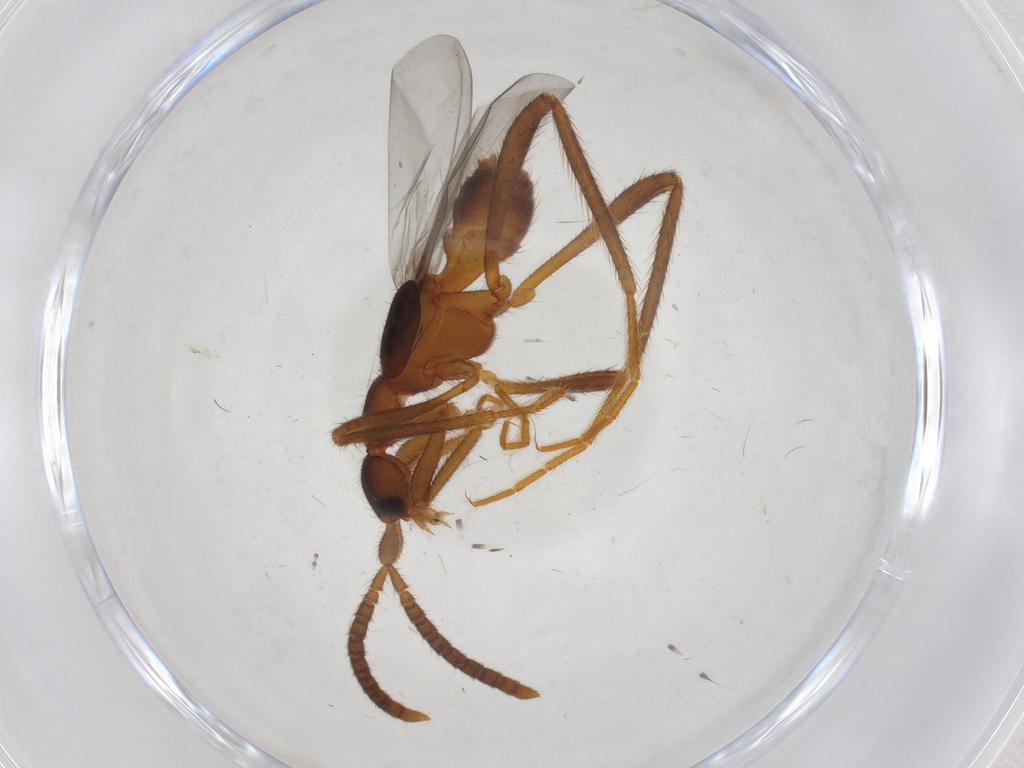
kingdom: Animalia
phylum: Arthropoda
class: Insecta
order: Coleoptera
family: Staphylinidae
